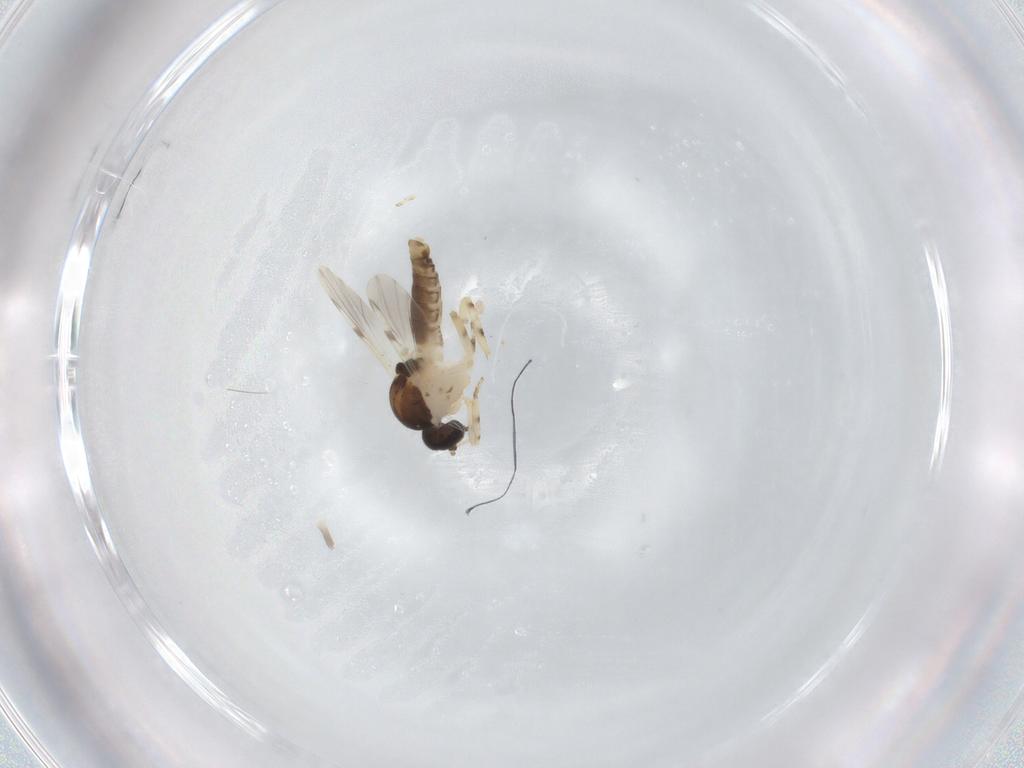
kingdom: Animalia
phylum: Arthropoda
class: Insecta
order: Diptera
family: Ceratopogonidae
